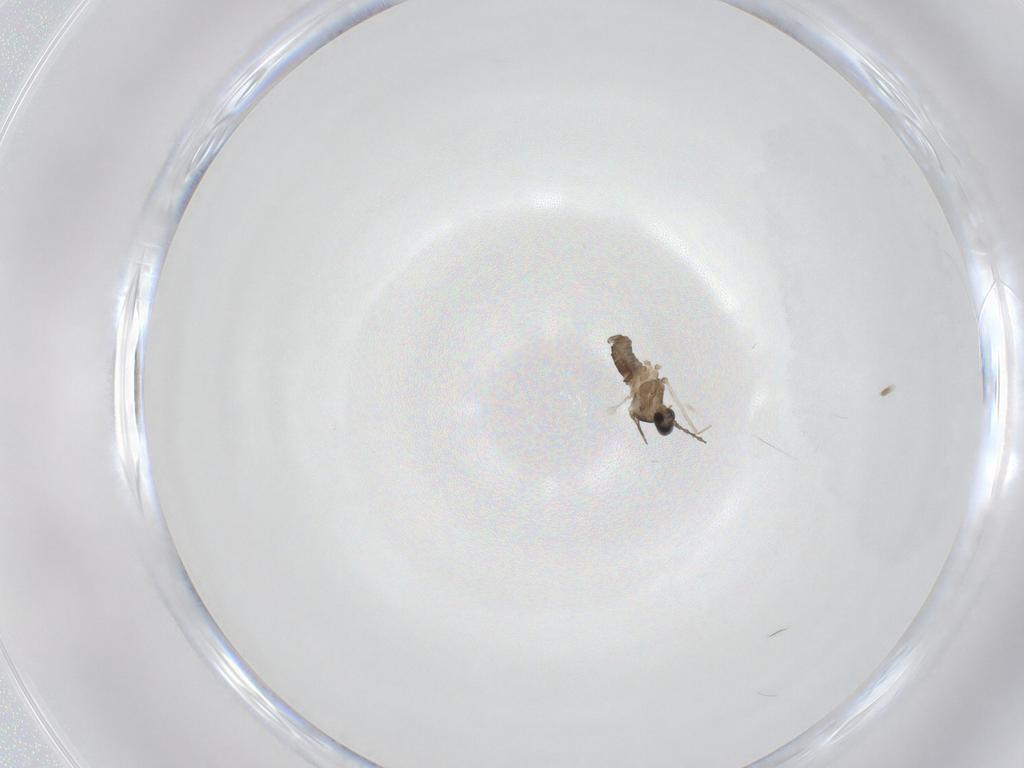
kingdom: Animalia
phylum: Arthropoda
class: Insecta
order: Diptera
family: Cecidomyiidae
